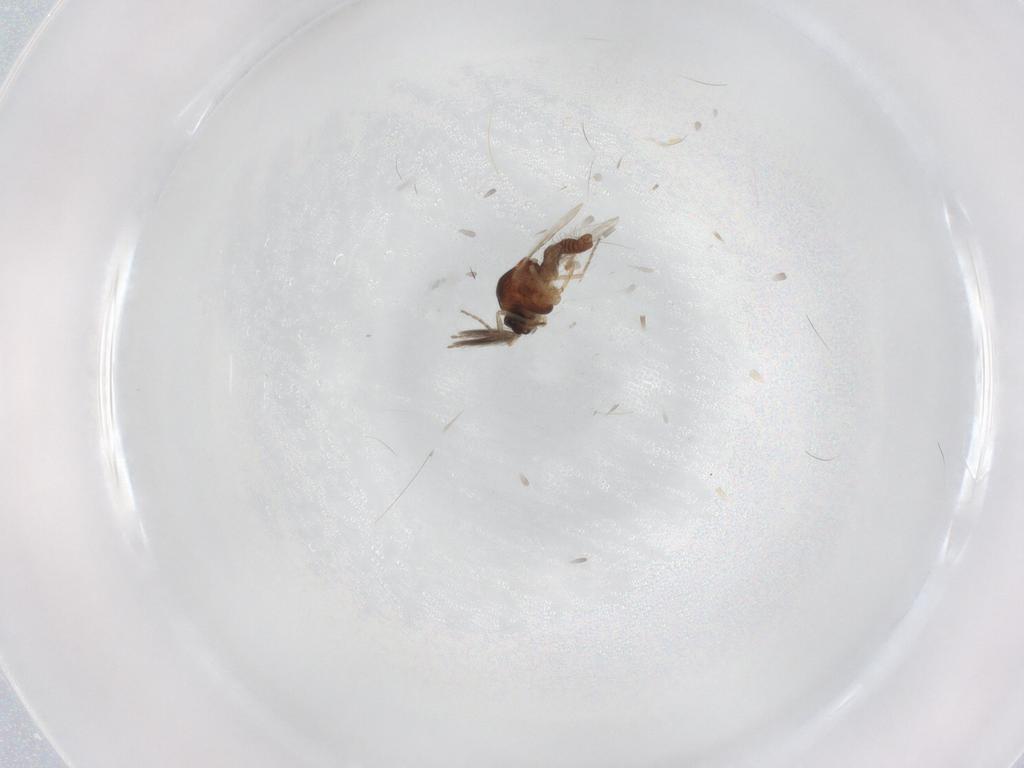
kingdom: Animalia
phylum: Arthropoda
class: Insecta
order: Diptera
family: Ceratopogonidae
